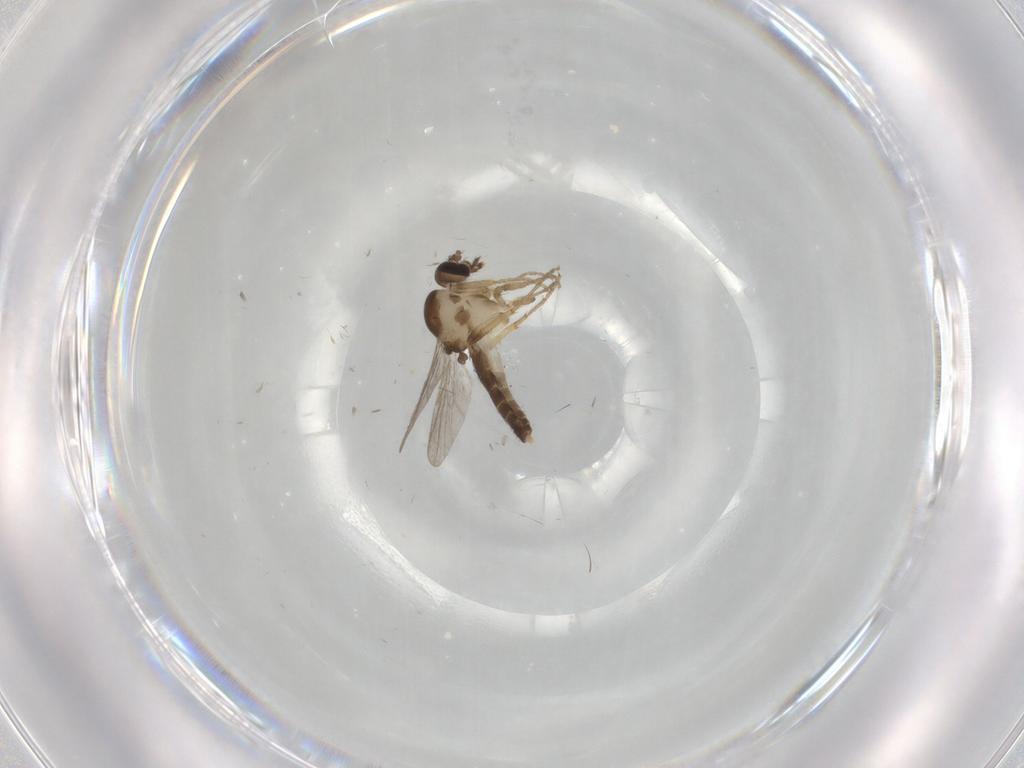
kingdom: Animalia
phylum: Arthropoda
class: Insecta
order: Diptera
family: Ceratopogonidae
